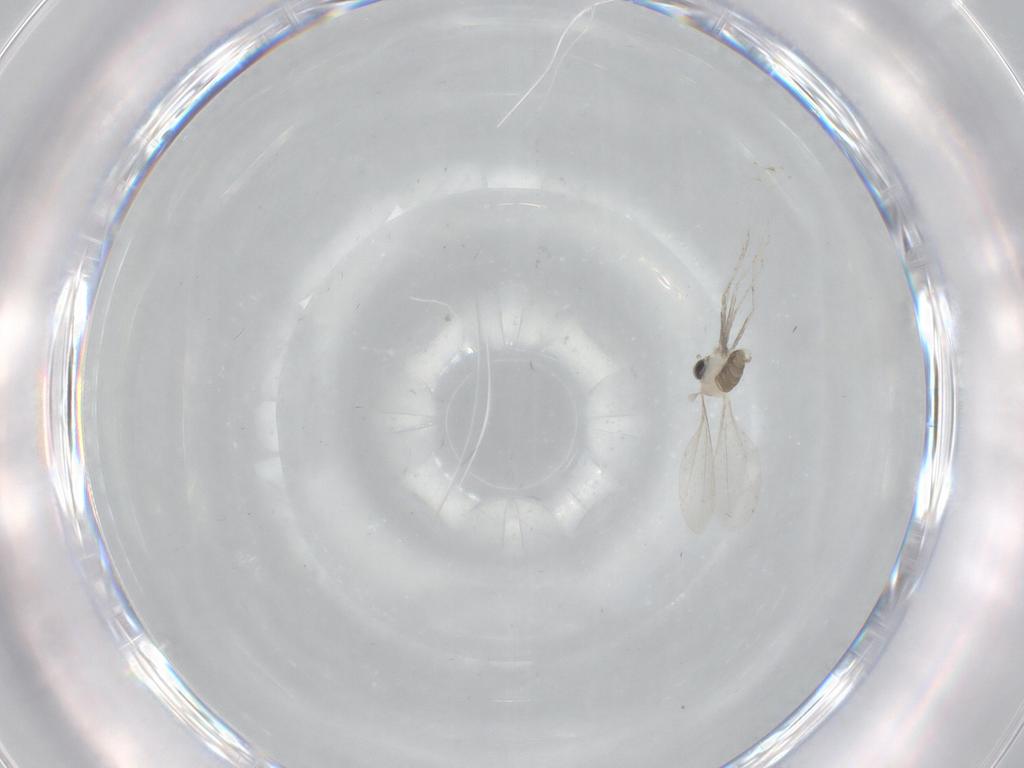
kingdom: Animalia
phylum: Arthropoda
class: Insecta
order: Diptera
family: Cecidomyiidae
